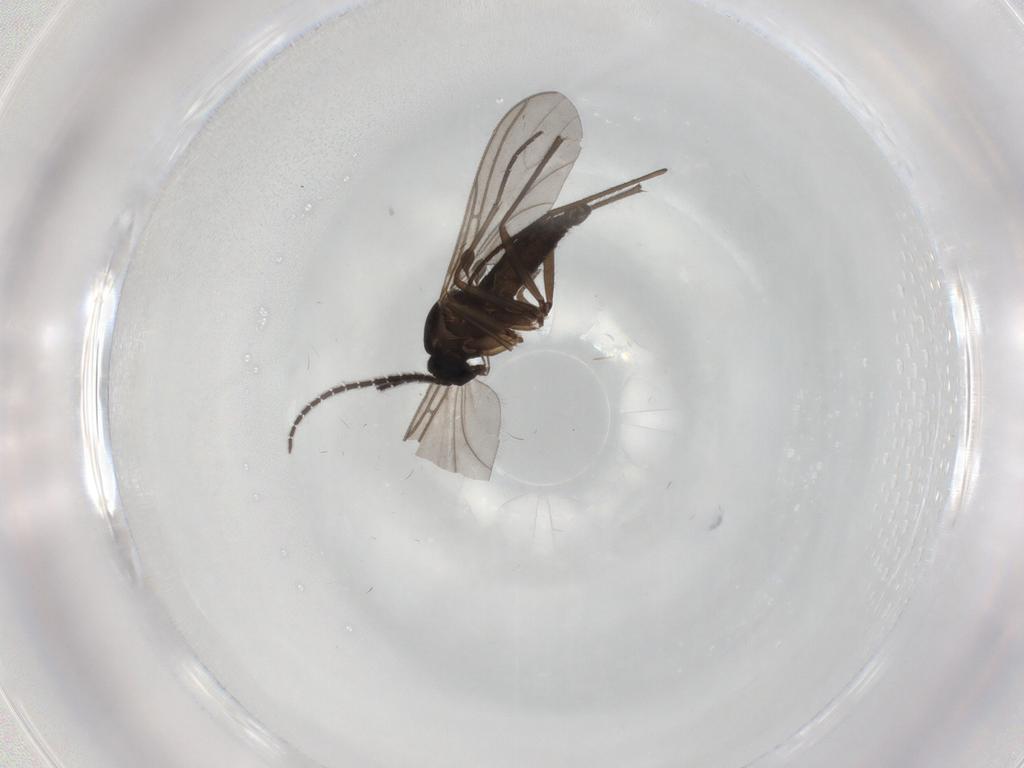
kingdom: Animalia
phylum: Arthropoda
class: Insecta
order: Diptera
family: Sciaridae
